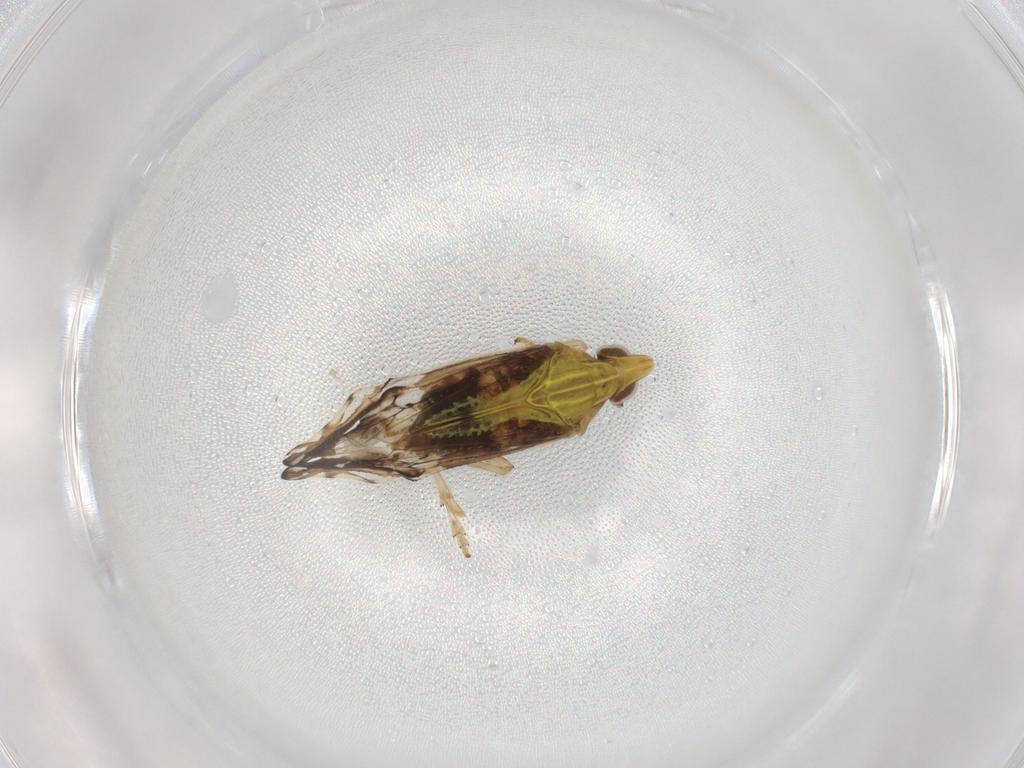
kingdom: Animalia
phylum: Arthropoda
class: Insecta
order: Hemiptera
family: Delphacidae
